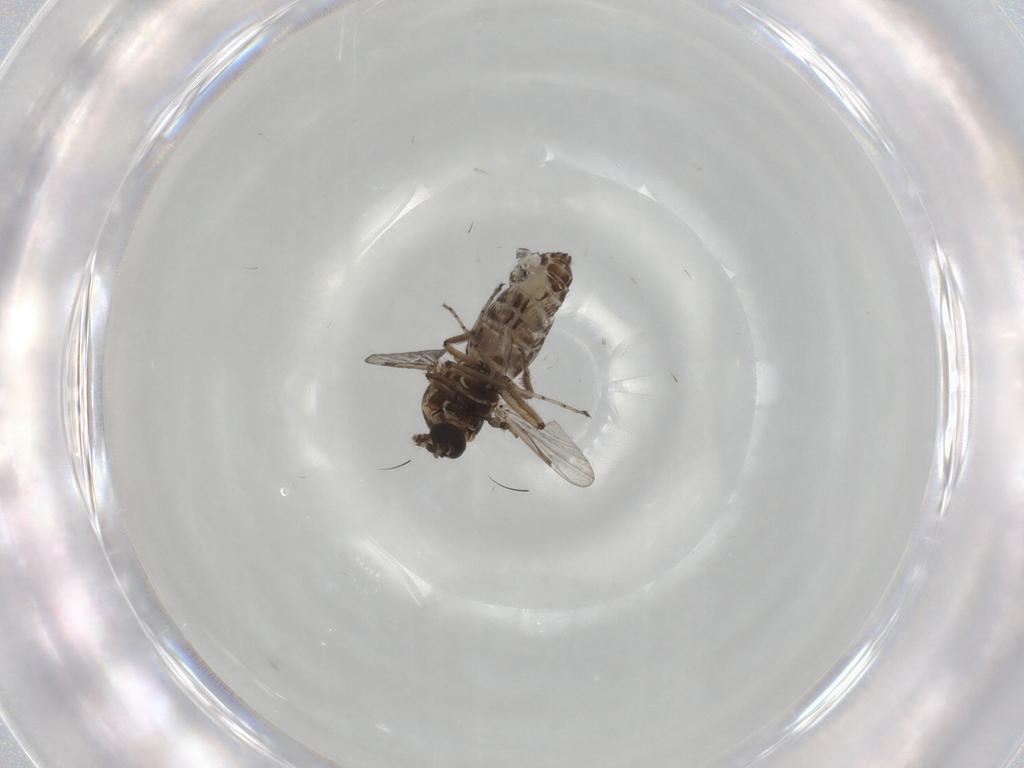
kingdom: Animalia
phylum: Arthropoda
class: Insecta
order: Diptera
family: Ceratopogonidae
